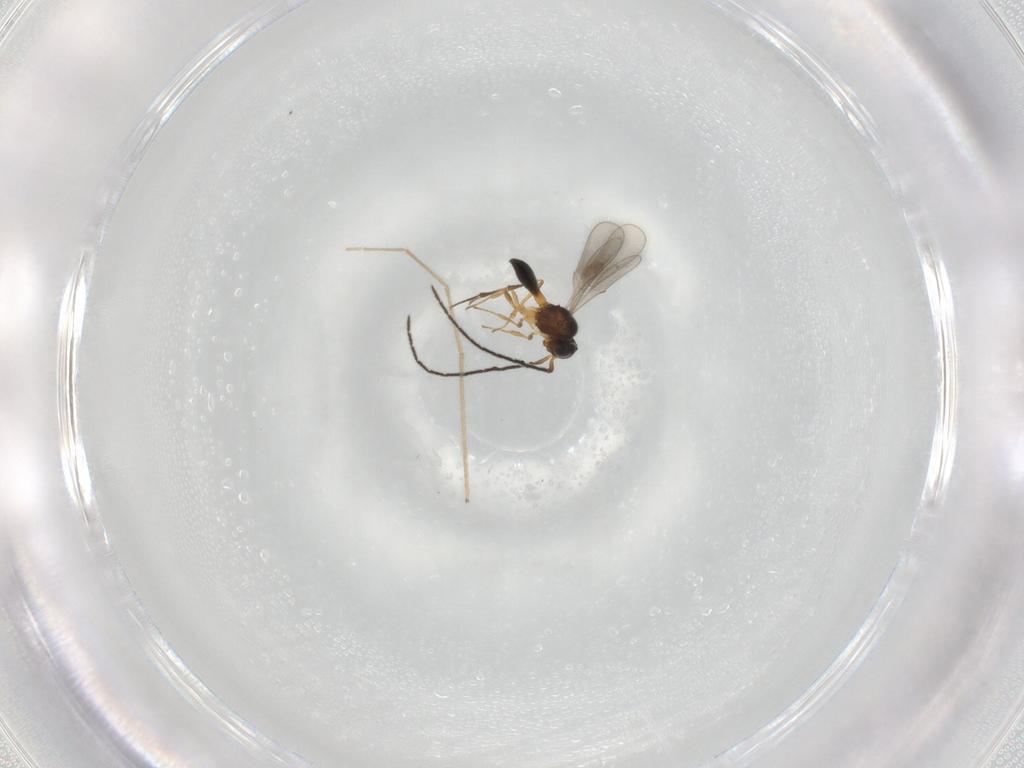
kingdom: Animalia
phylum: Arthropoda
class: Insecta
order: Hymenoptera
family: Scelionidae
